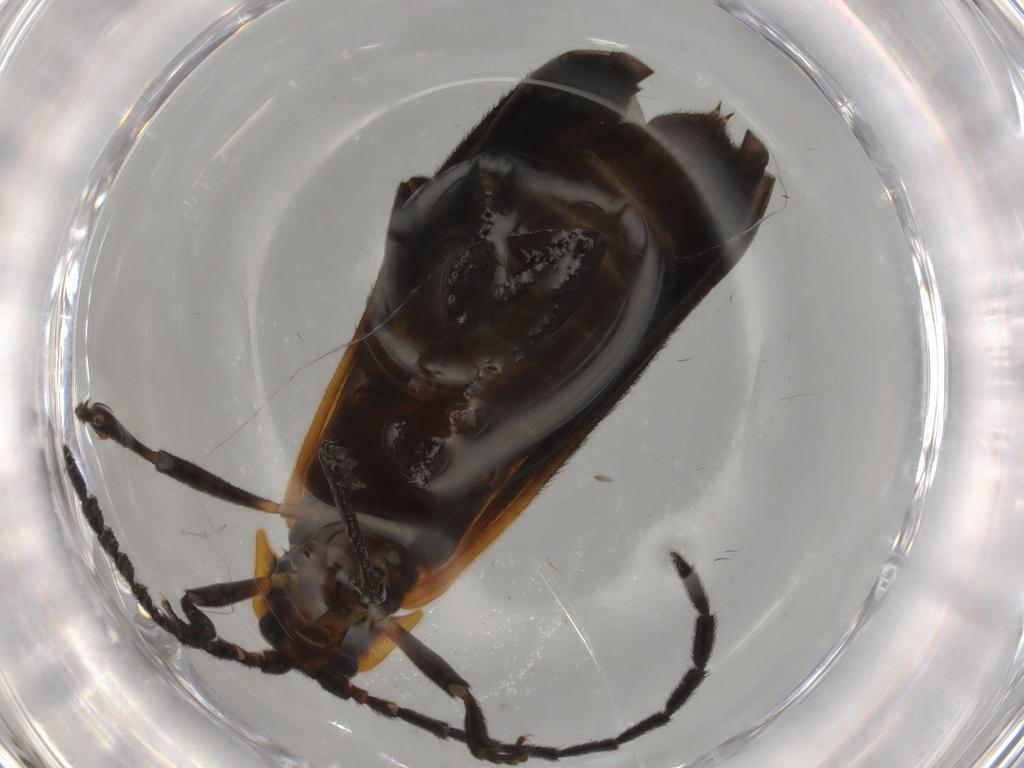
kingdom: Animalia
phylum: Arthropoda
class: Insecta
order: Coleoptera
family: Lycidae
